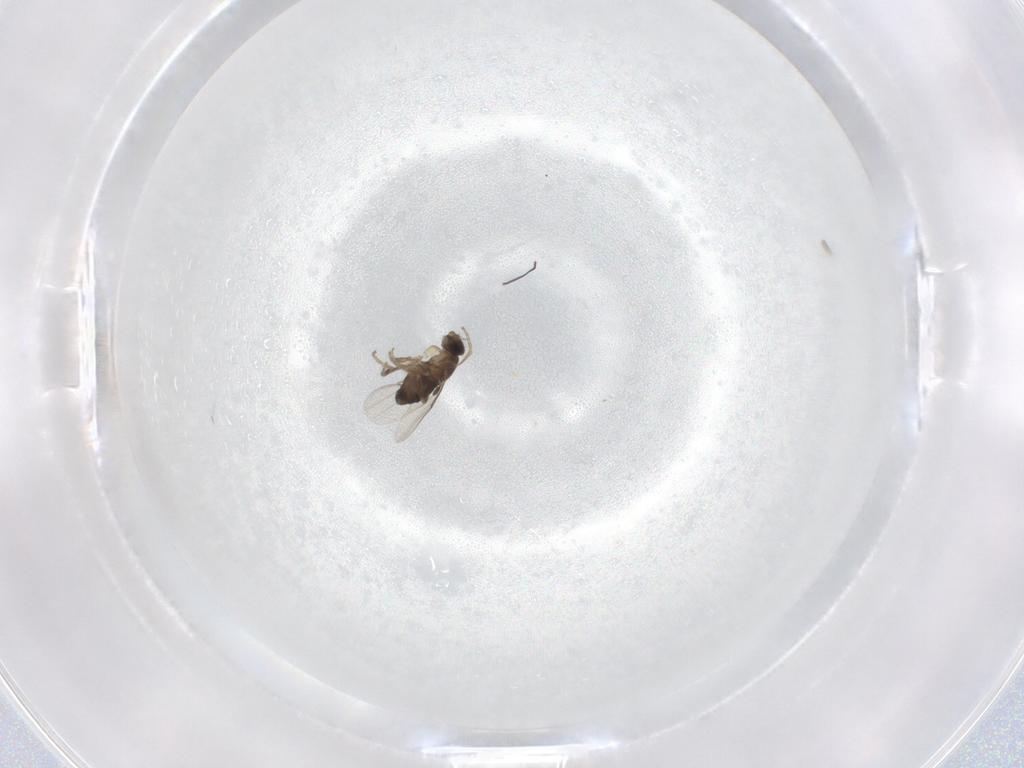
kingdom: Animalia
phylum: Arthropoda
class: Insecta
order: Diptera
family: Phoridae
